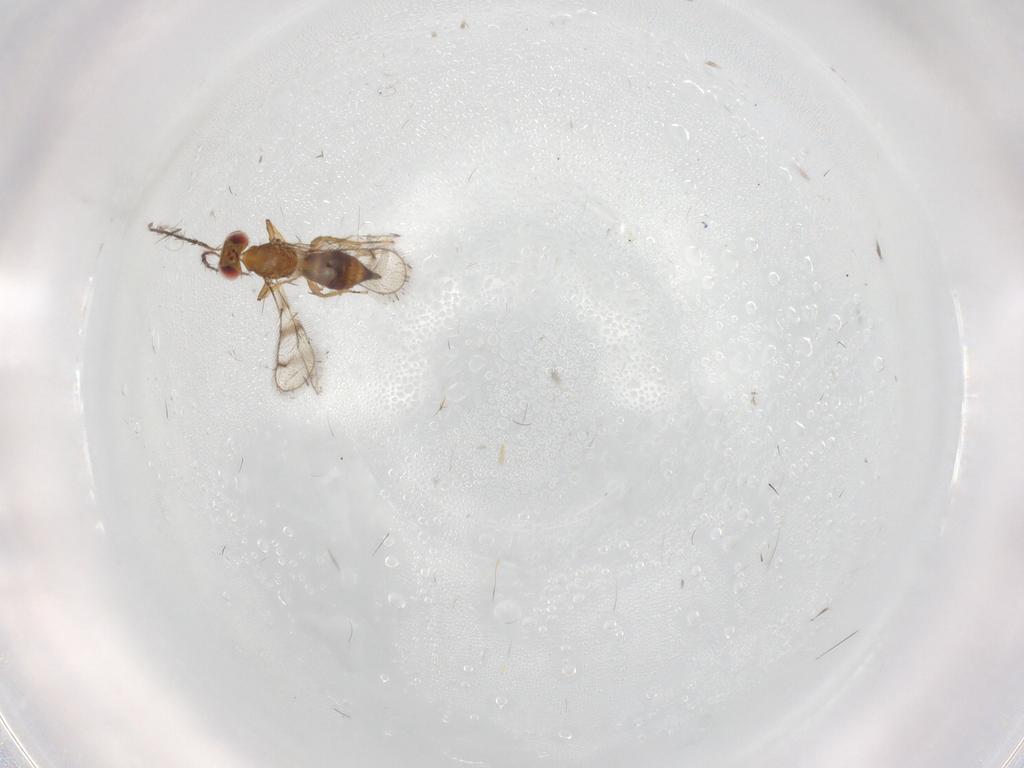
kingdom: Animalia
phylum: Arthropoda
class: Insecta
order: Hymenoptera
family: Eulophidae
